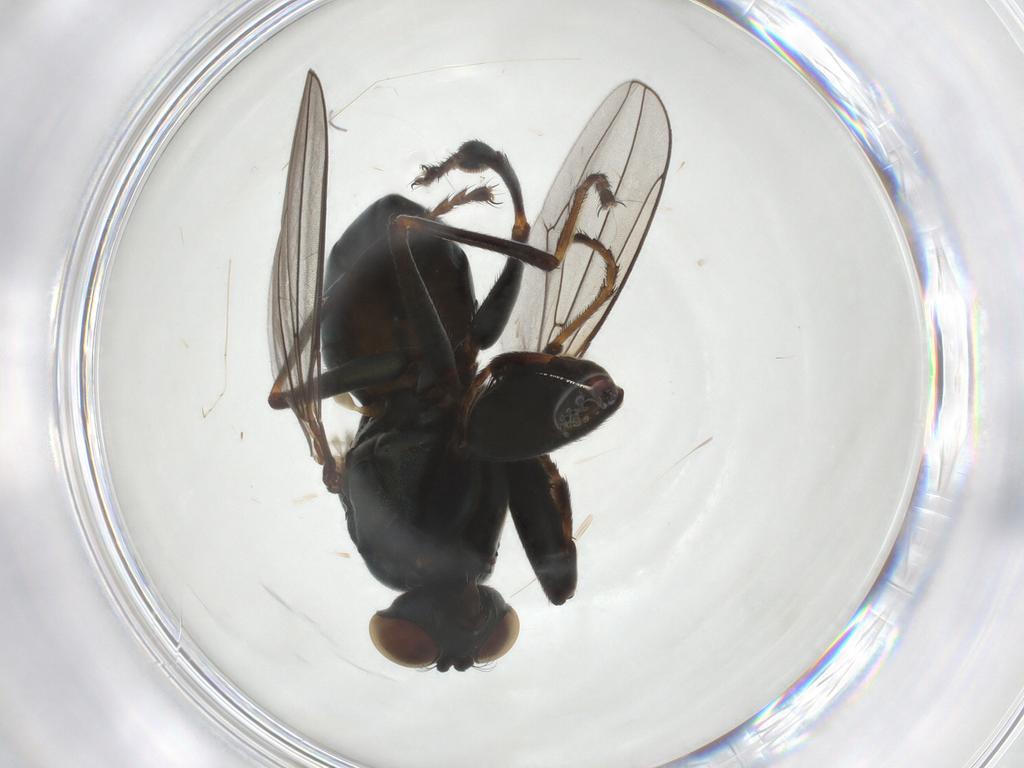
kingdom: Animalia
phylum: Arthropoda
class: Insecta
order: Diptera
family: Ephydridae
